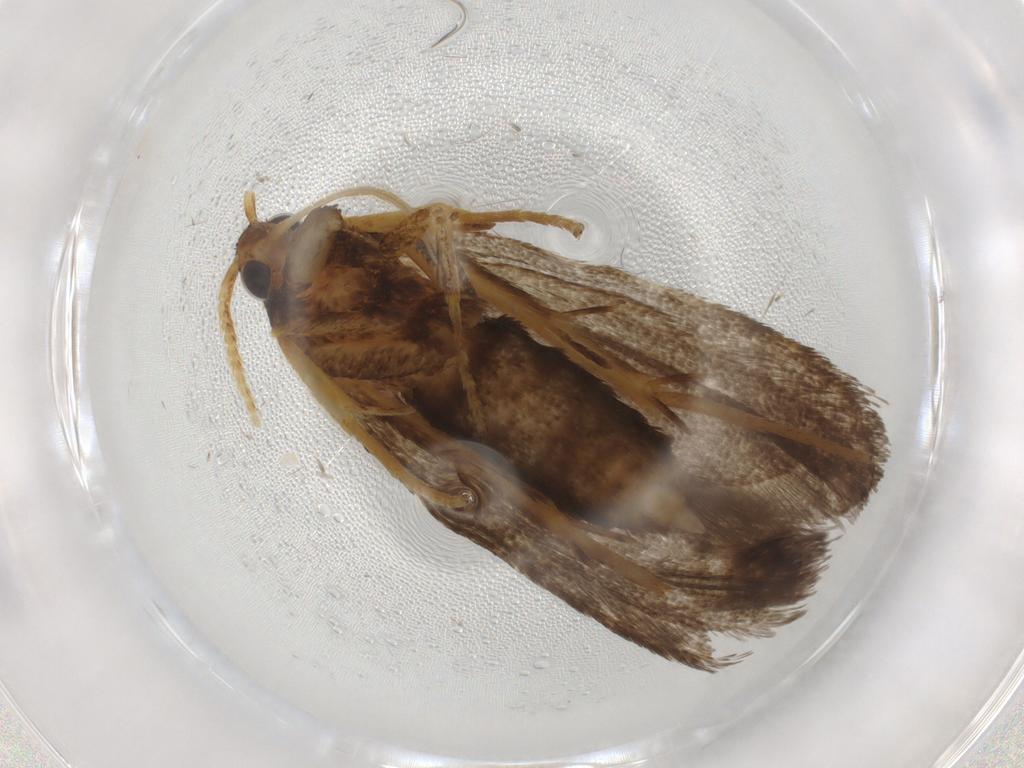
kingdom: Animalia
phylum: Arthropoda
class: Insecta
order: Lepidoptera
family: Lecithoceridae
